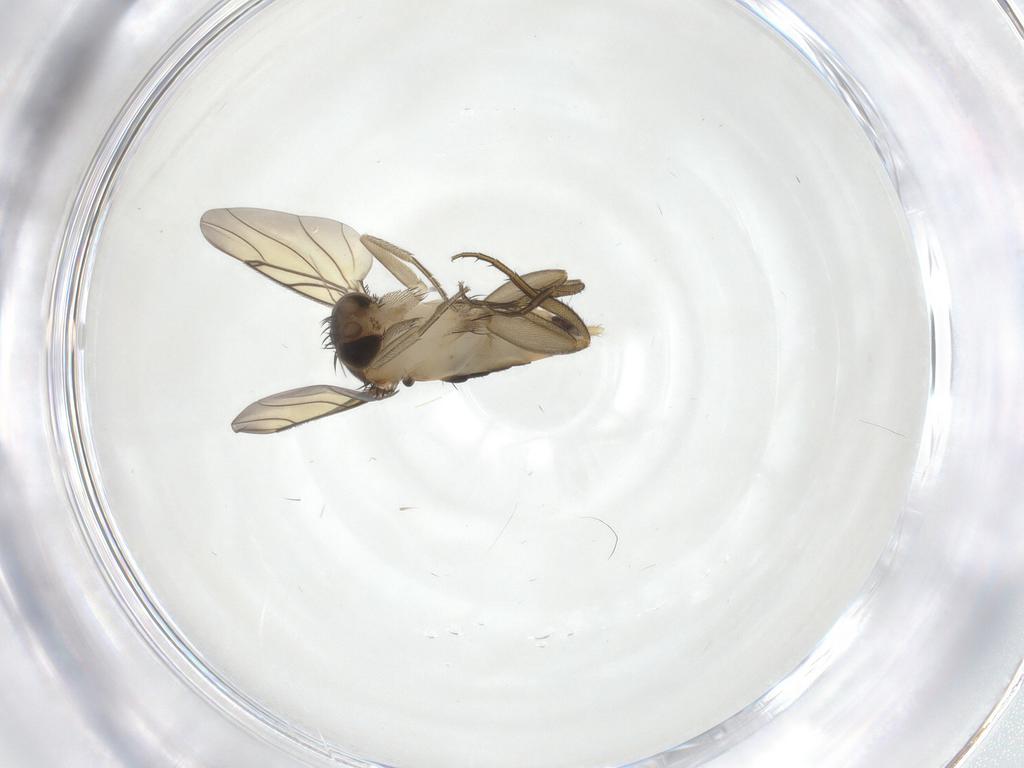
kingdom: Animalia
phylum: Arthropoda
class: Insecta
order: Diptera
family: Phoridae
